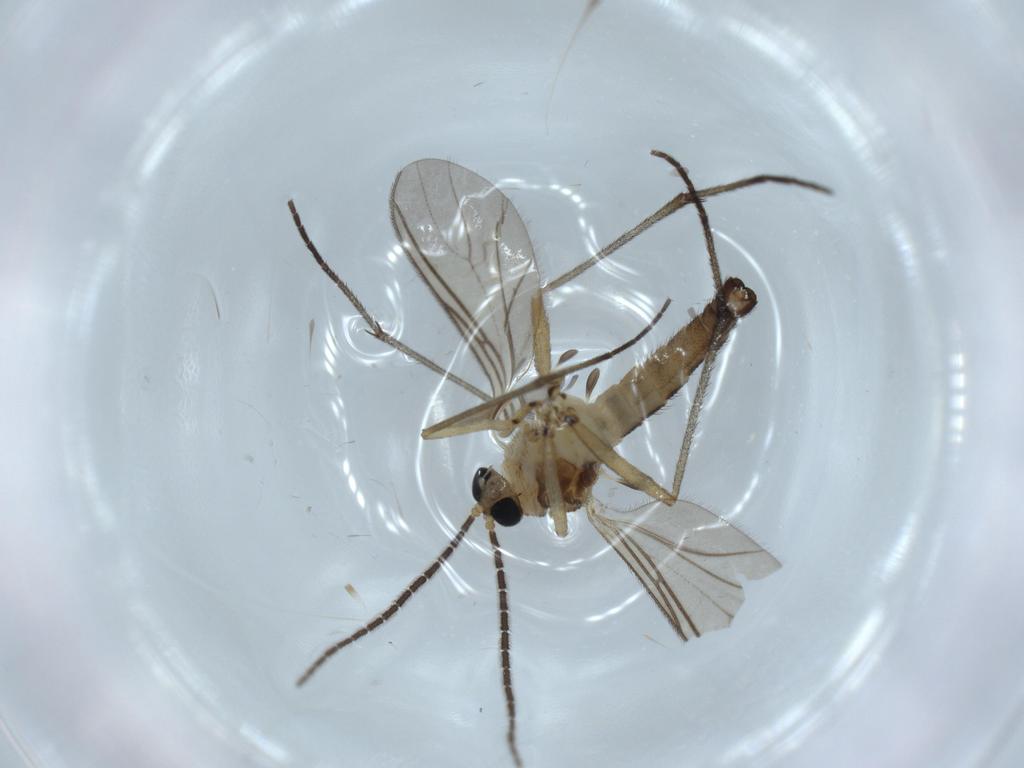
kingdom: Animalia
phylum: Arthropoda
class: Insecta
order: Diptera
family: Sciaridae
